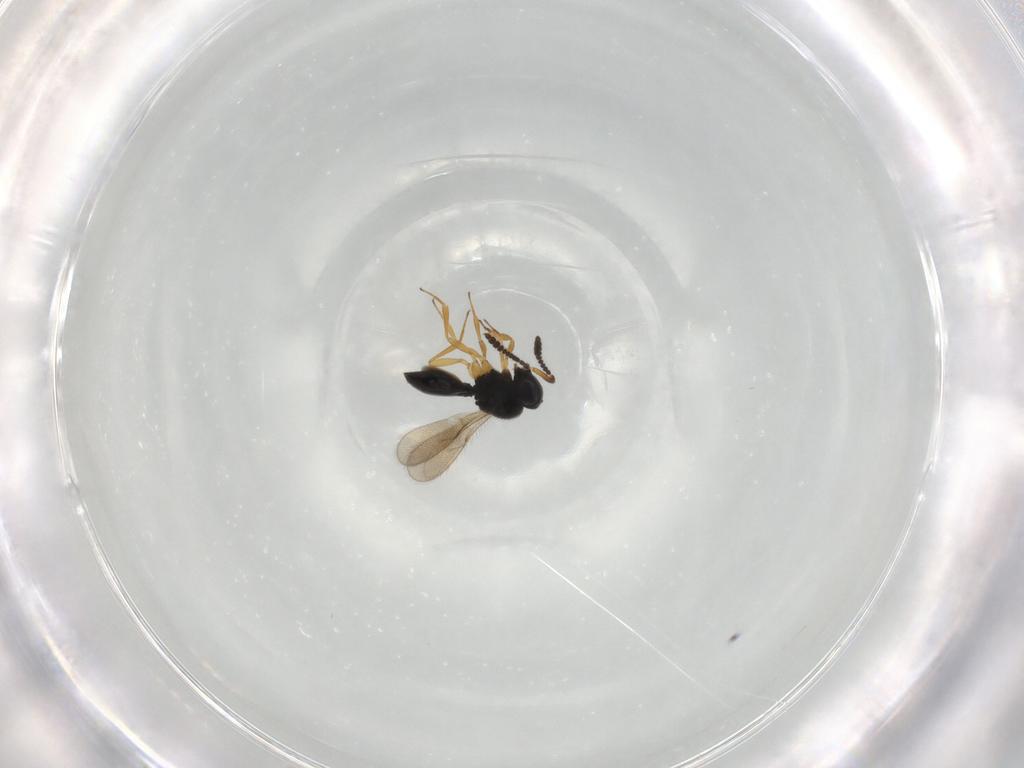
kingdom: Animalia
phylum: Arthropoda
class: Insecta
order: Hymenoptera
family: Scelionidae
